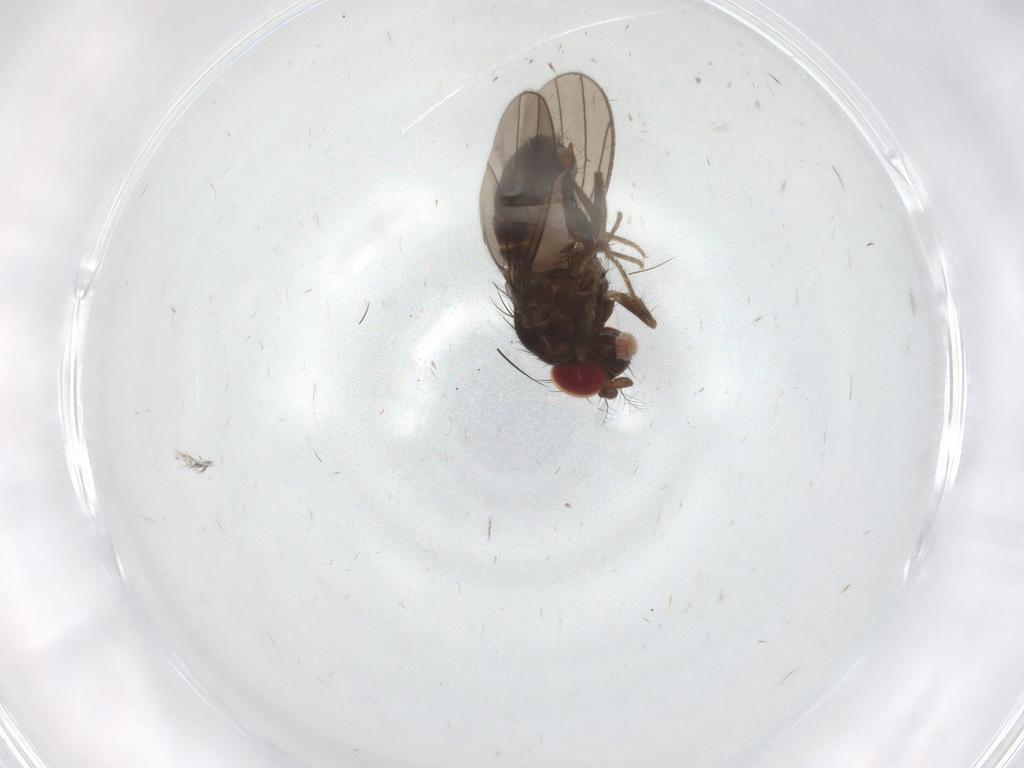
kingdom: Animalia
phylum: Arthropoda
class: Insecta
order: Diptera
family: Drosophilidae
